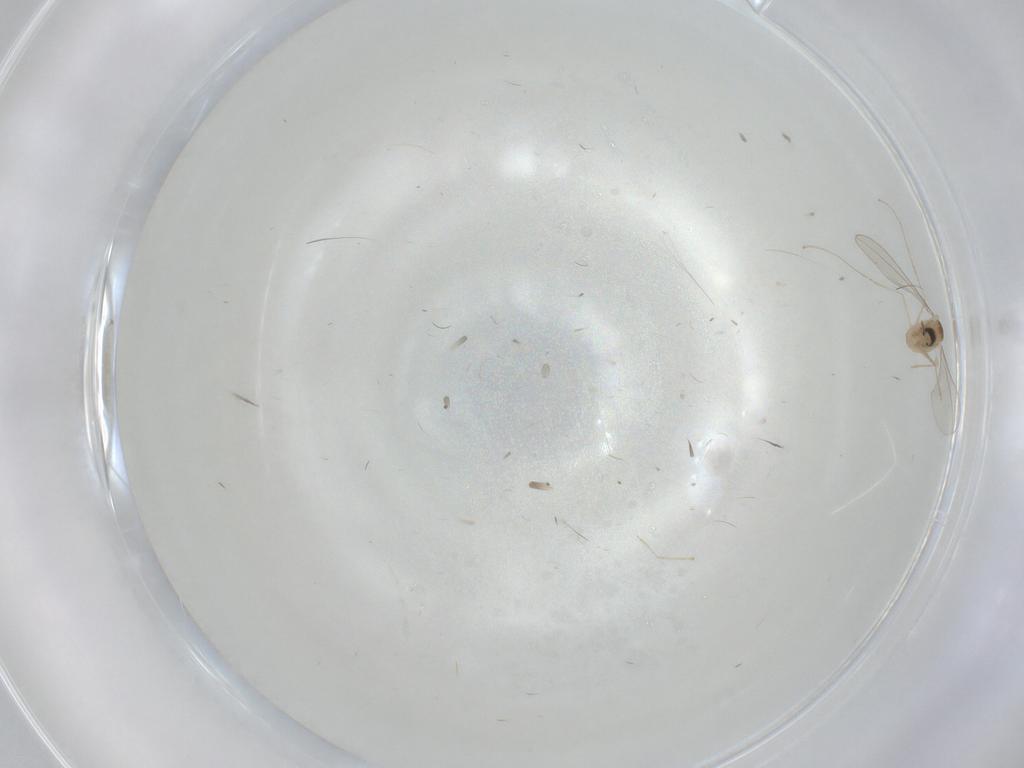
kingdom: Animalia
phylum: Arthropoda
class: Insecta
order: Diptera
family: Cecidomyiidae
